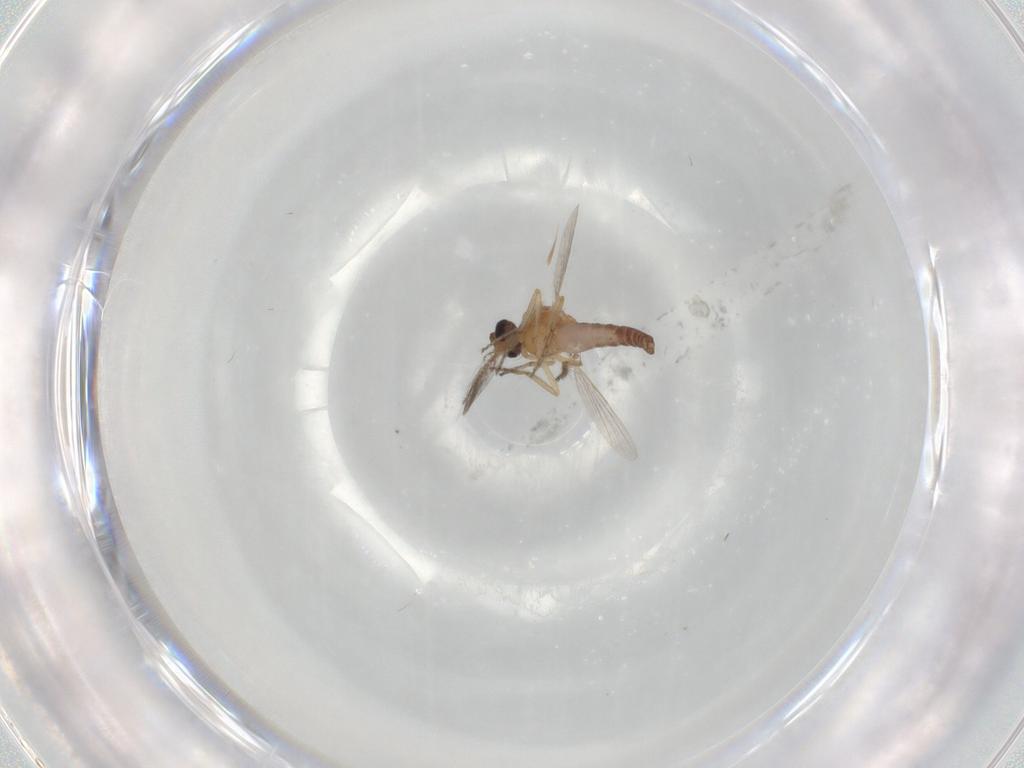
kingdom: Animalia
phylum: Arthropoda
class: Insecta
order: Diptera
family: Ceratopogonidae
